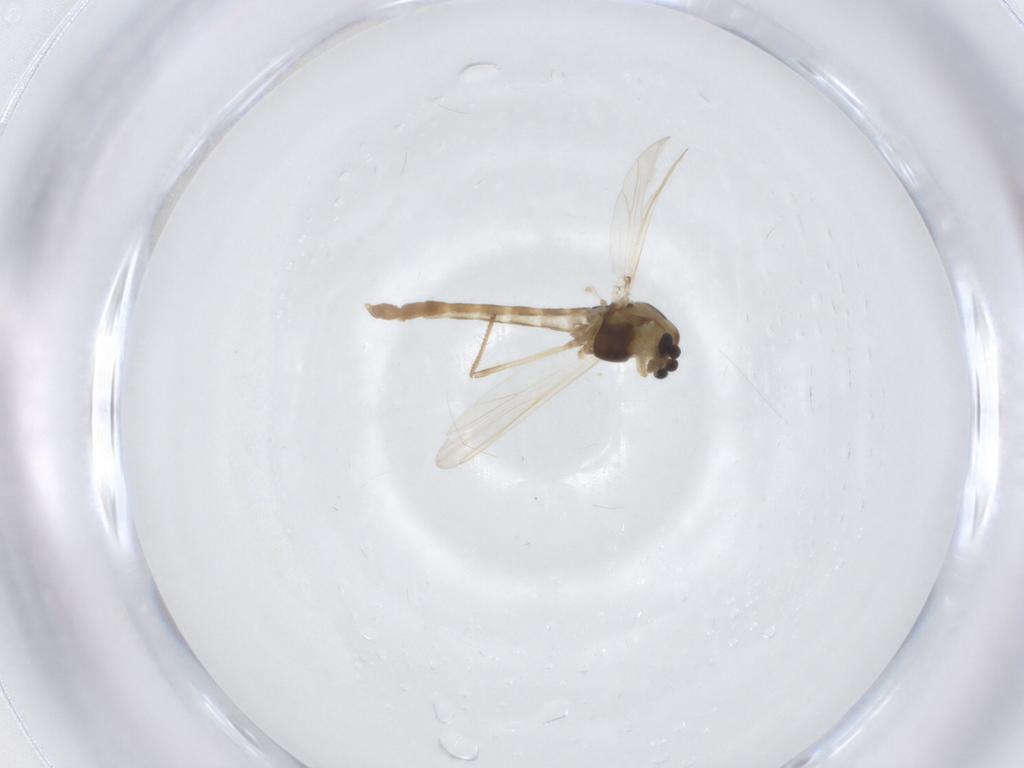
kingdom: Animalia
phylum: Arthropoda
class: Insecta
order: Diptera
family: Chironomidae
